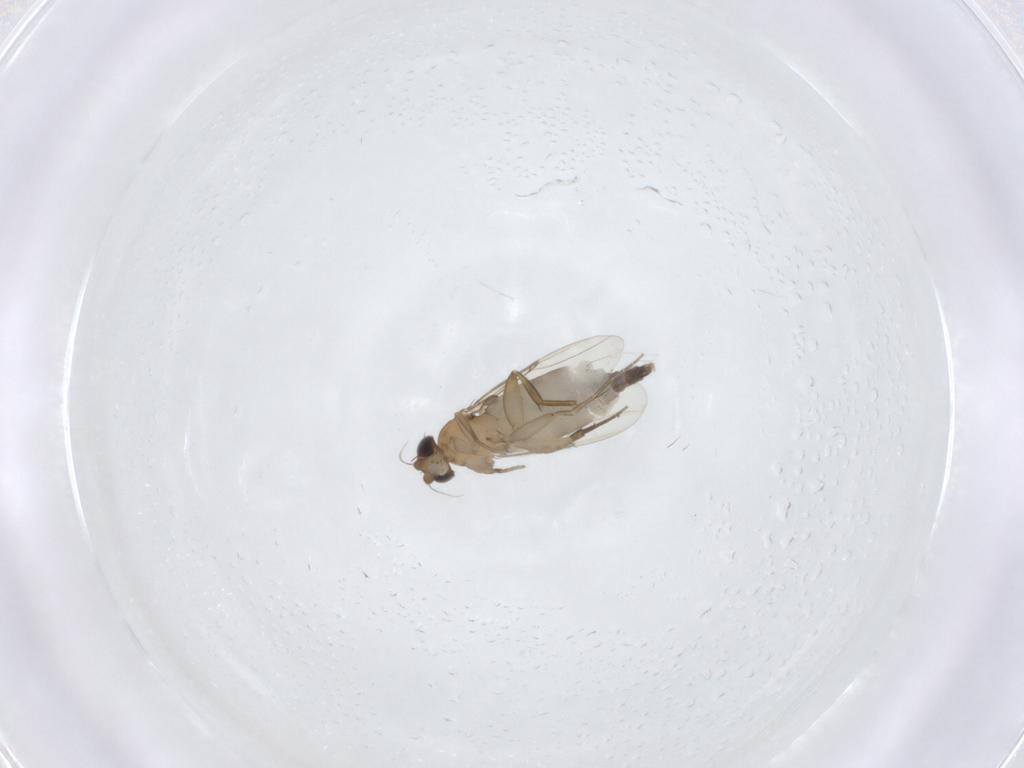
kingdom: Animalia
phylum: Arthropoda
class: Insecta
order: Diptera
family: Phoridae
